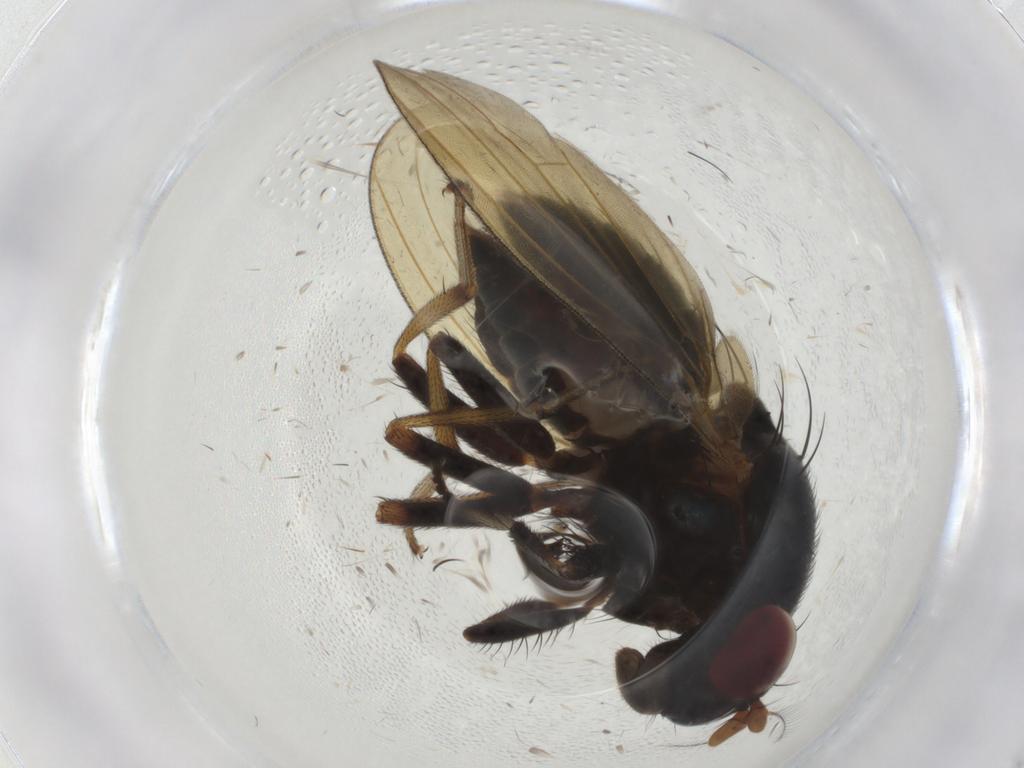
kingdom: Animalia
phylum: Arthropoda
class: Insecta
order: Diptera
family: Lauxaniidae
